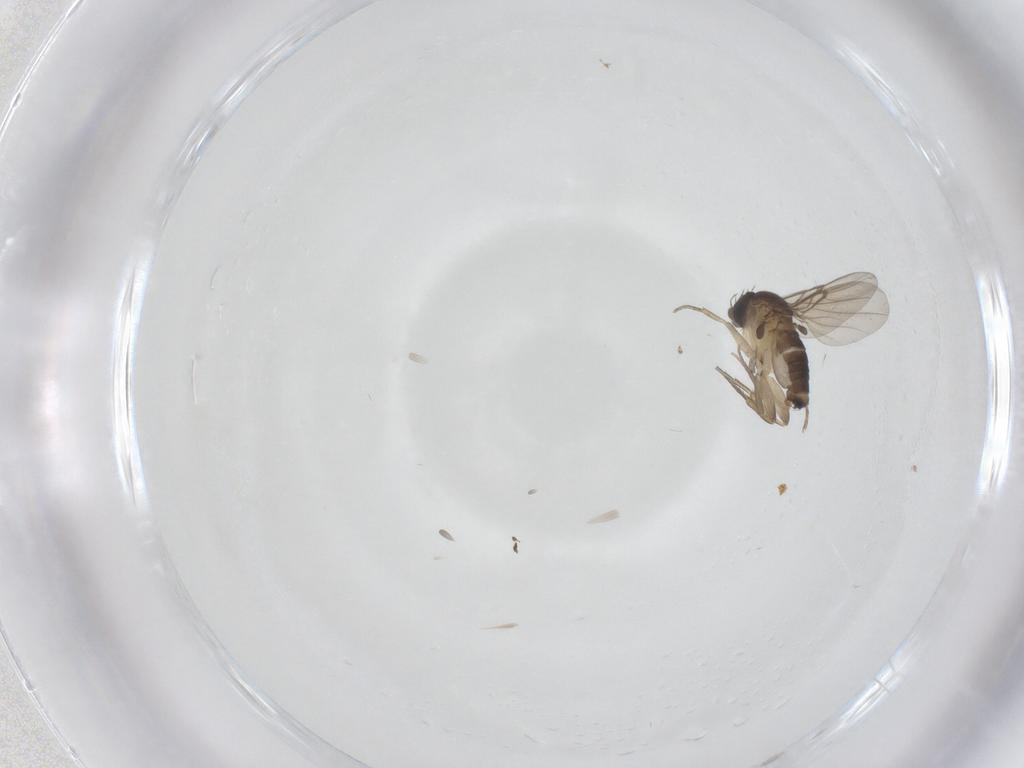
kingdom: Animalia
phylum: Arthropoda
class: Insecta
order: Diptera
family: Phoridae
